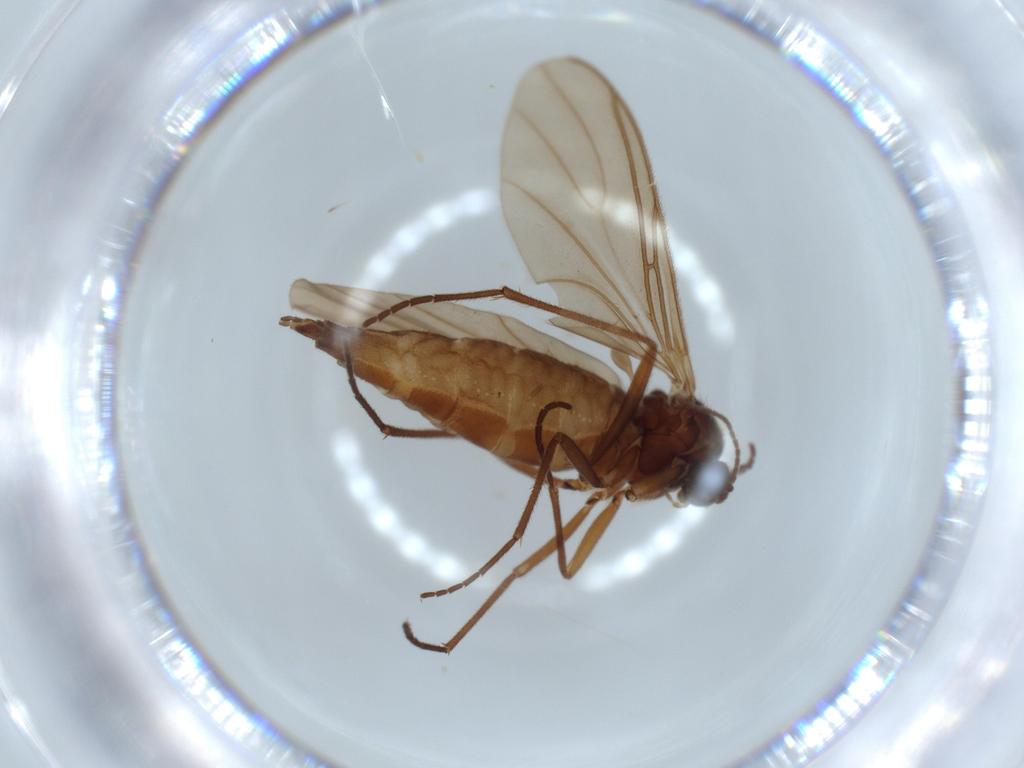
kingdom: Animalia
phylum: Arthropoda
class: Insecta
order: Diptera
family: Sciaridae
